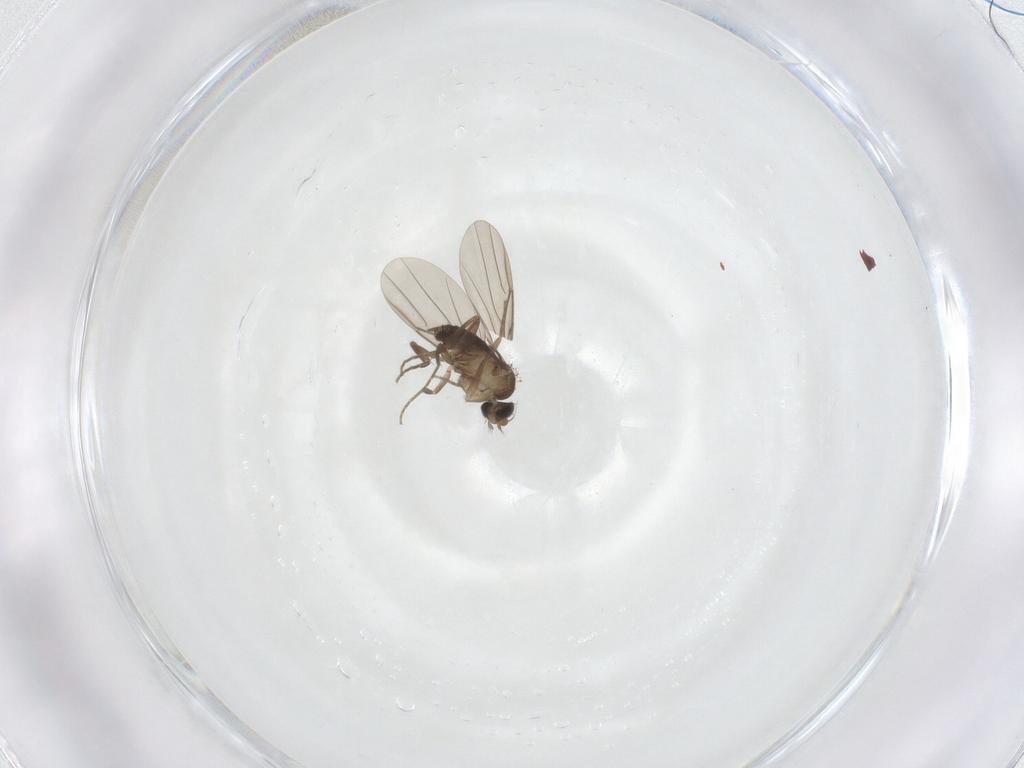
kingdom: Animalia
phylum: Arthropoda
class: Insecta
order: Diptera
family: Phoridae
